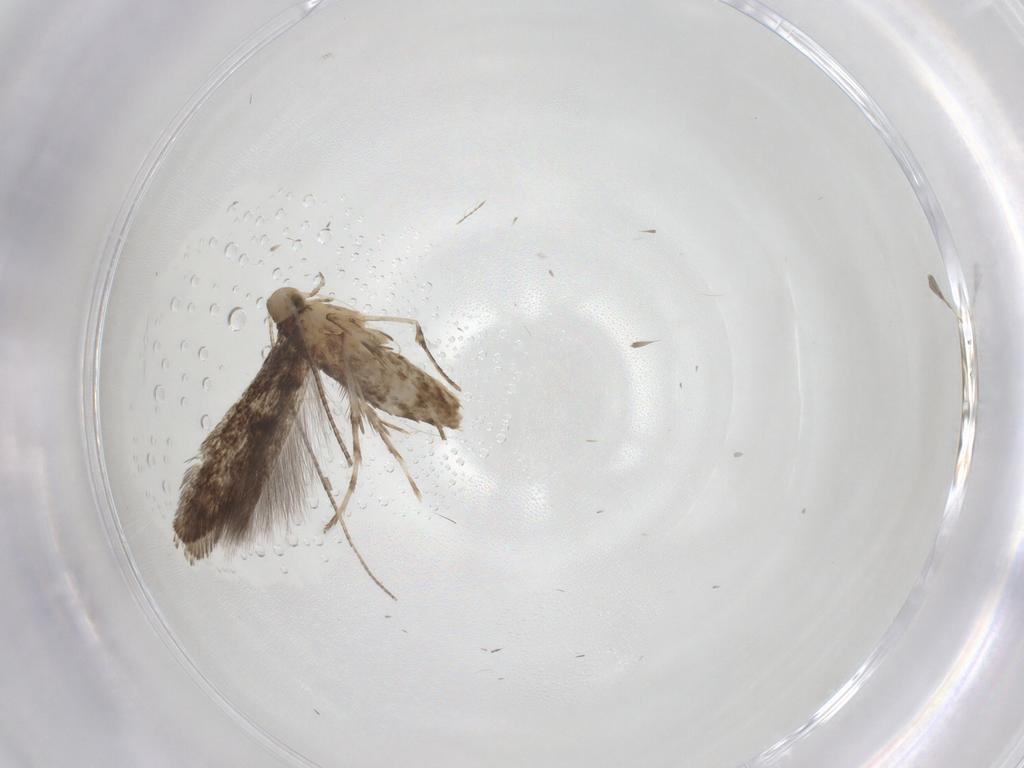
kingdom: Animalia
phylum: Arthropoda
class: Insecta
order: Lepidoptera
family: Gracillariidae
